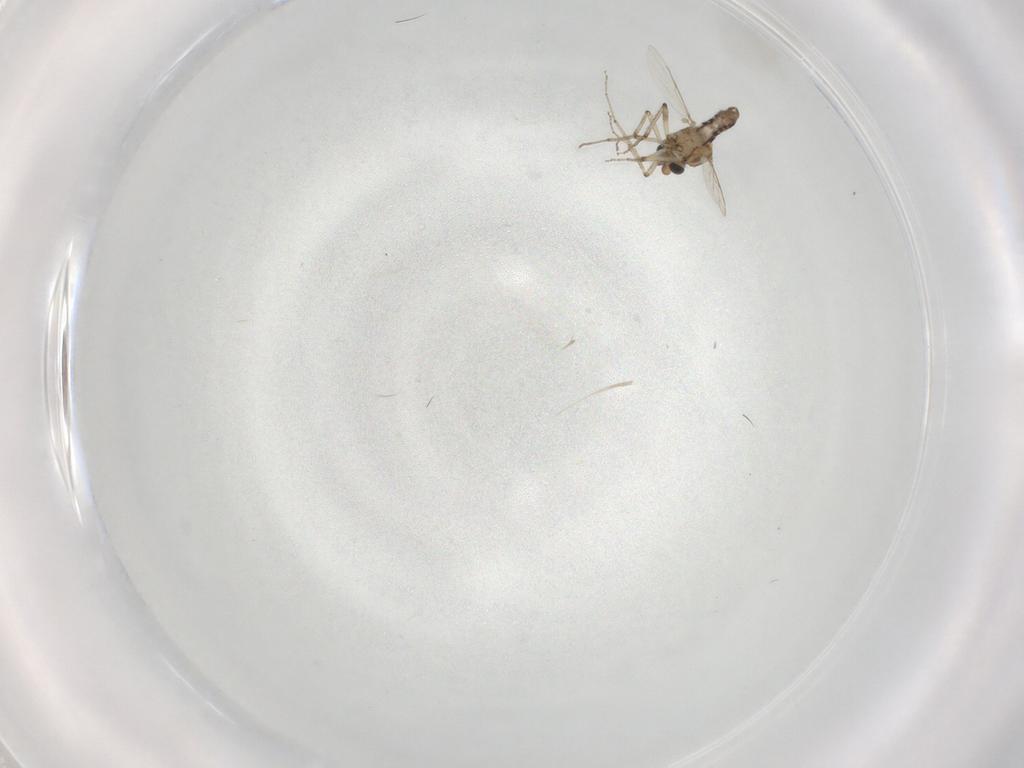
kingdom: Animalia
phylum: Arthropoda
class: Insecta
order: Diptera
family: Ceratopogonidae
